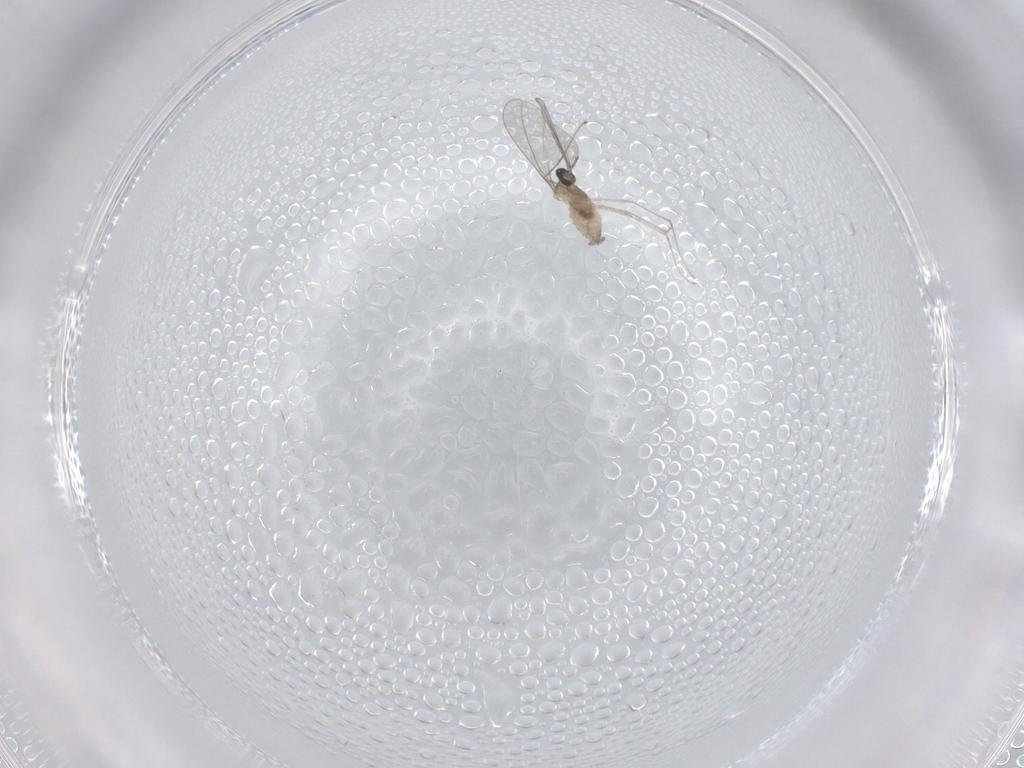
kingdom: Animalia
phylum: Arthropoda
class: Insecta
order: Diptera
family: Cecidomyiidae
